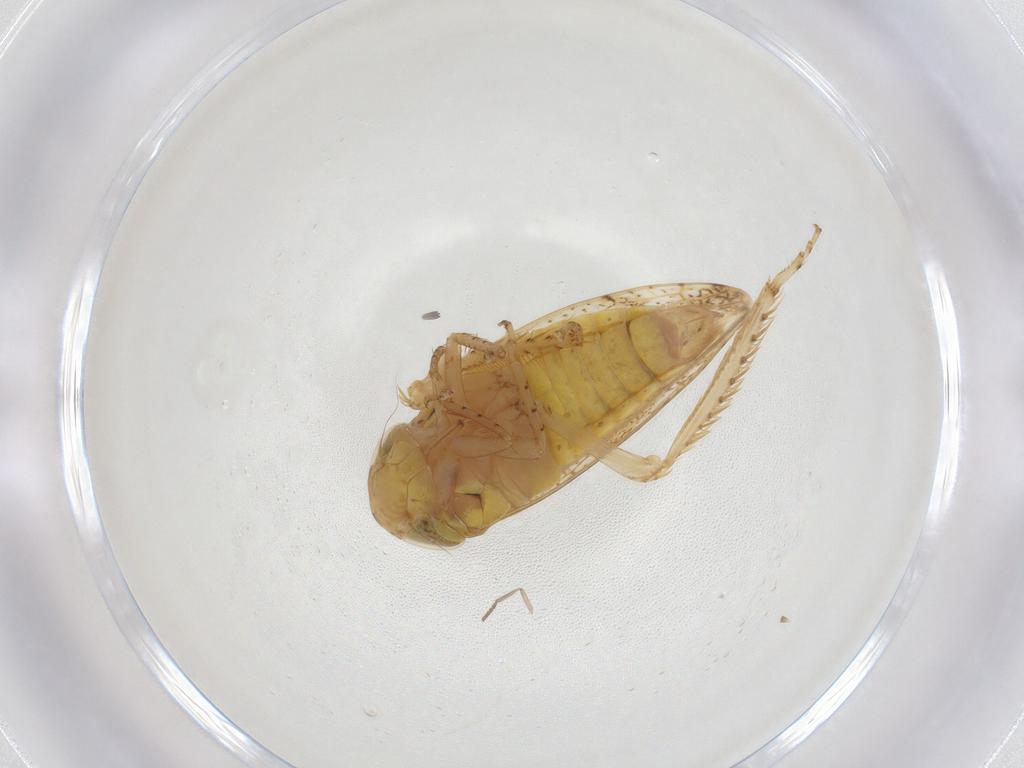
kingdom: Animalia
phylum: Arthropoda
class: Insecta
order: Hemiptera
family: Cicadellidae
